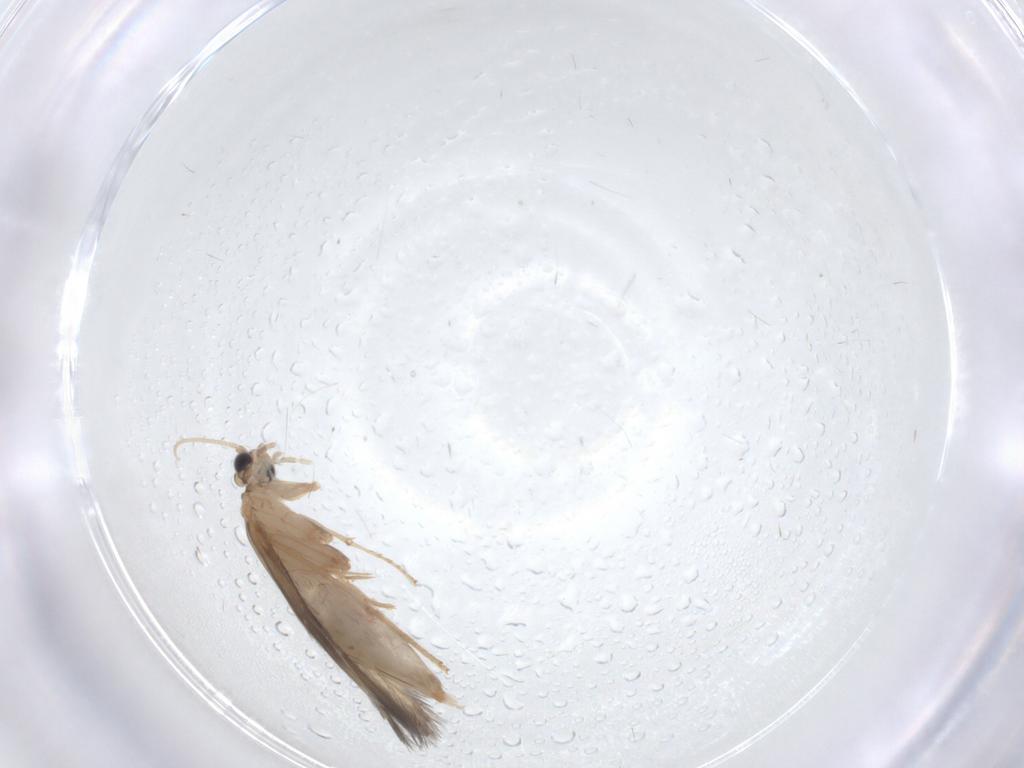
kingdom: Animalia
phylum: Arthropoda
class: Insecta
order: Trichoptera
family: Hydroptilidae
